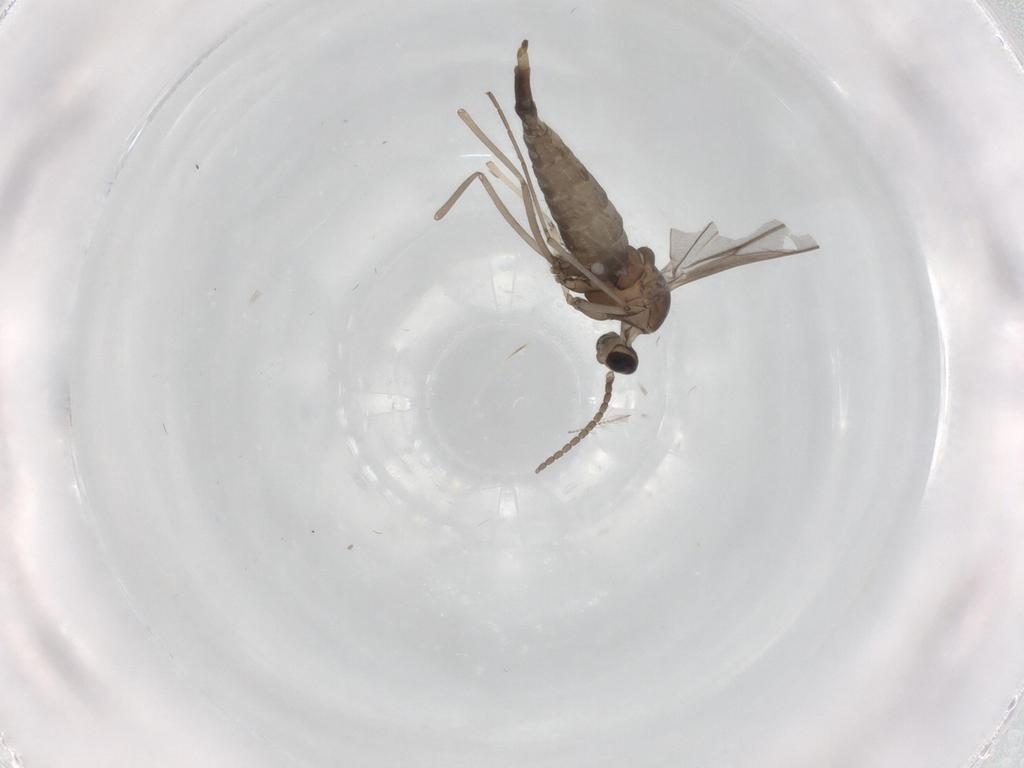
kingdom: Animalia
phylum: Arthropoda
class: Insecta
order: Diptera
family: Cecidomyiidae
